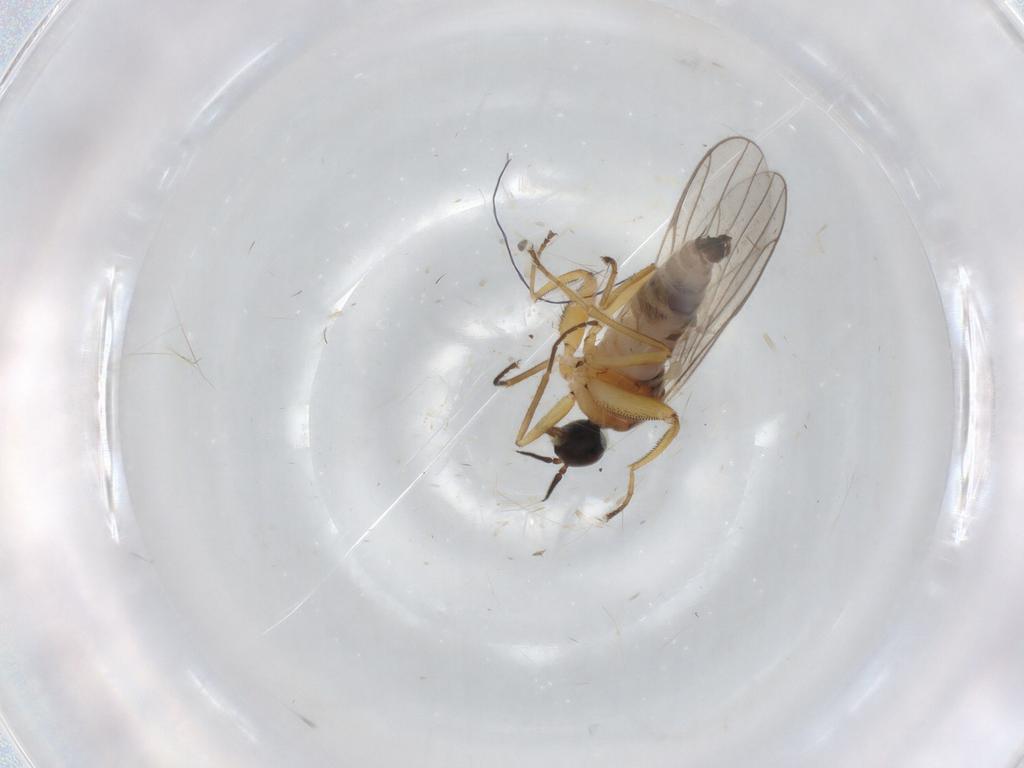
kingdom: Animalia
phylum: Arthropoda
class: Insecta
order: Diptera
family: Hybotidae
